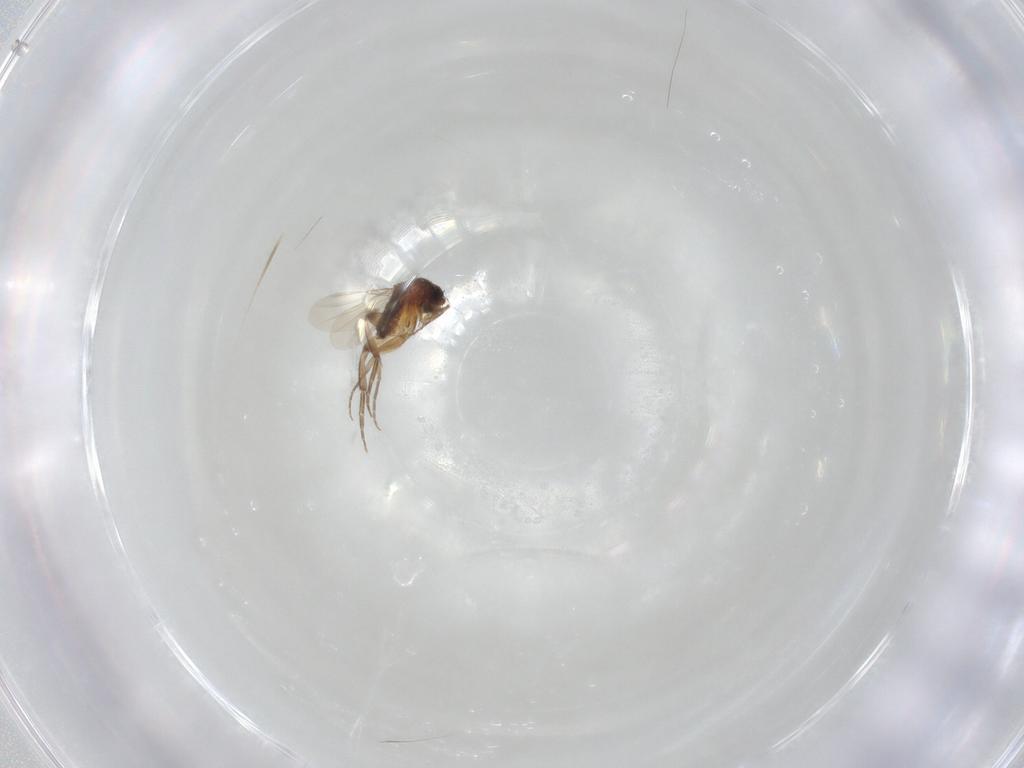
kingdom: Animalia
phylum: Arthropoda
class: Insecta
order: Diptera
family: Phoridae
